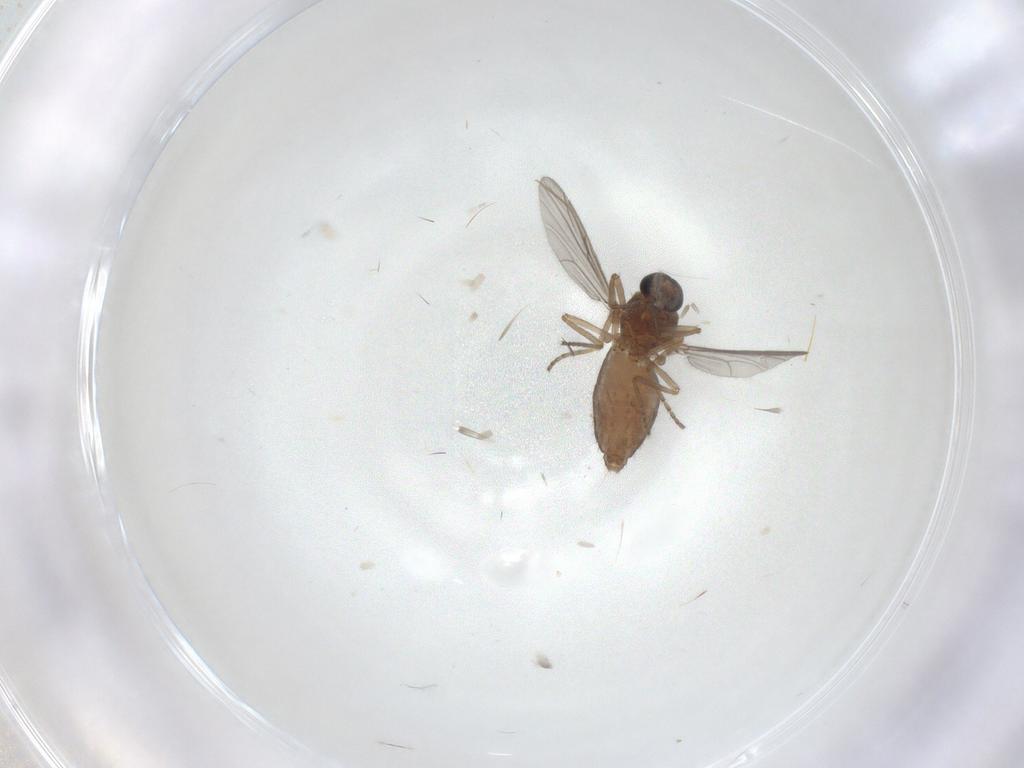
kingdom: Animalia
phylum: Arthropoda
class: Insecta
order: Diptera
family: Ceratopogonidae
